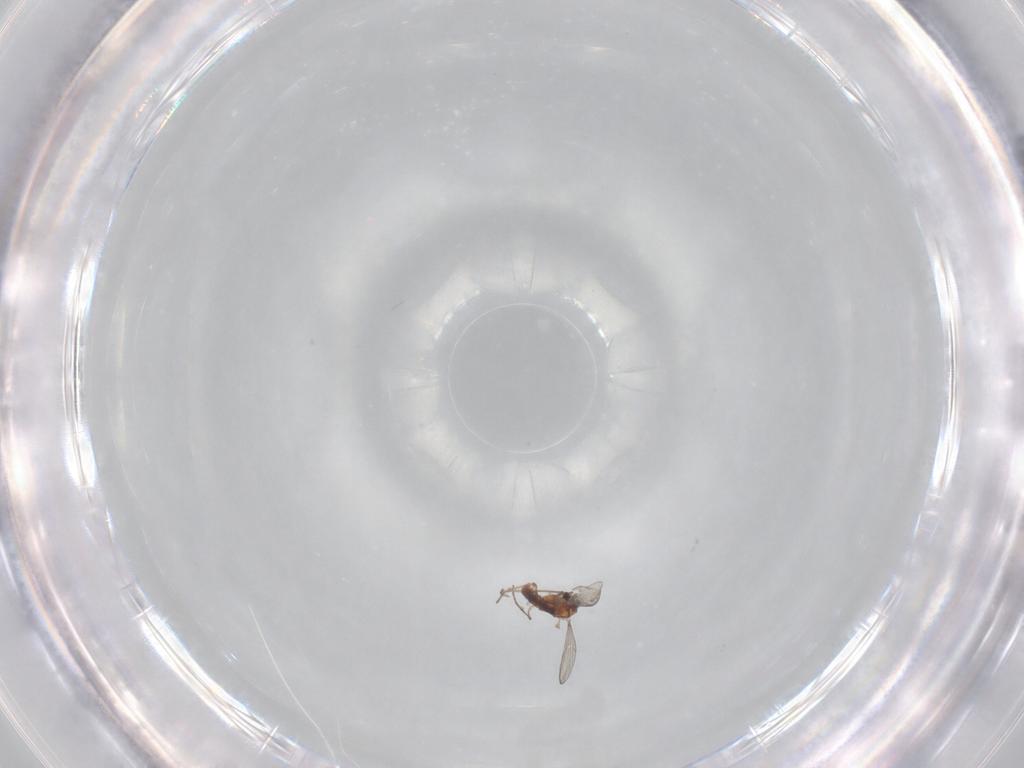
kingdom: Animalia
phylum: Arthropoda
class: Insecta
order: Diptera
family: Chironomidae
